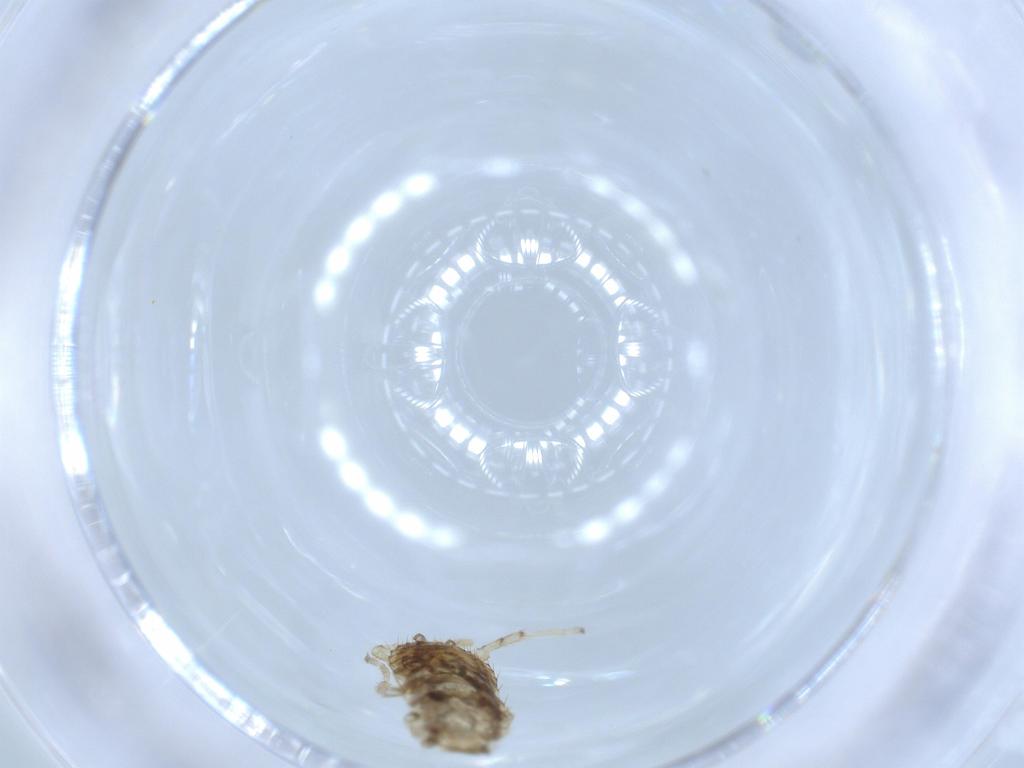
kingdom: Animalia
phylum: Arthropoda
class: Insecta
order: Blattodea
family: Ectobiidae
